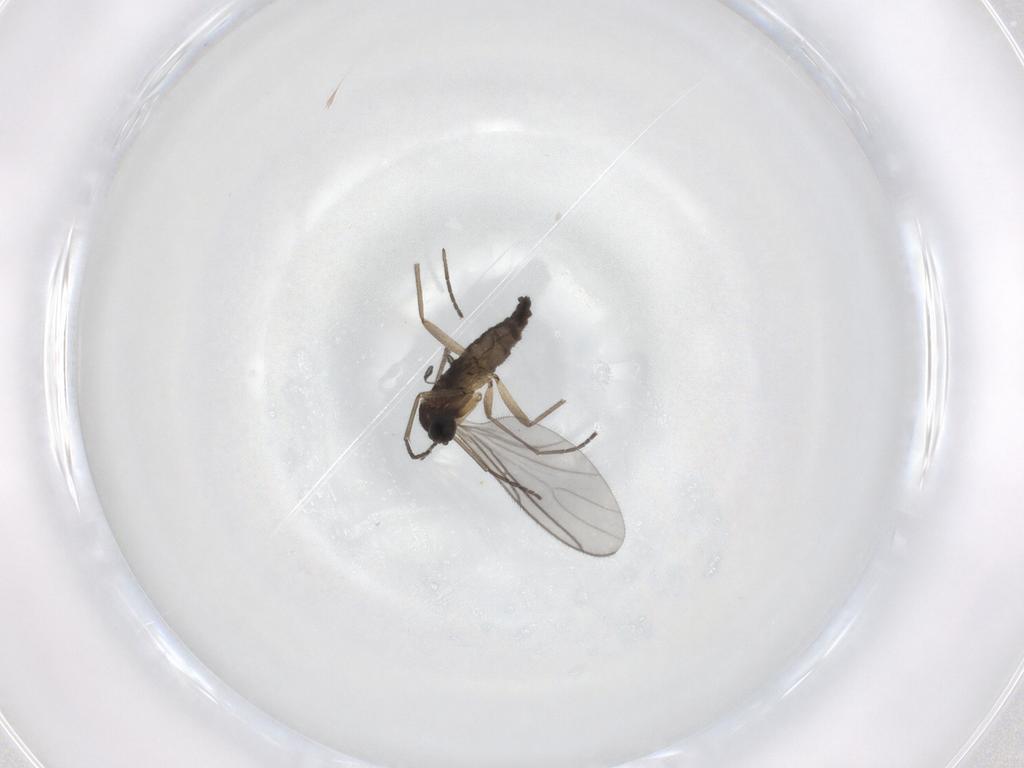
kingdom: Animalia
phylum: Arthropoda
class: Insecta
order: Diptera
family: Sciaridae
